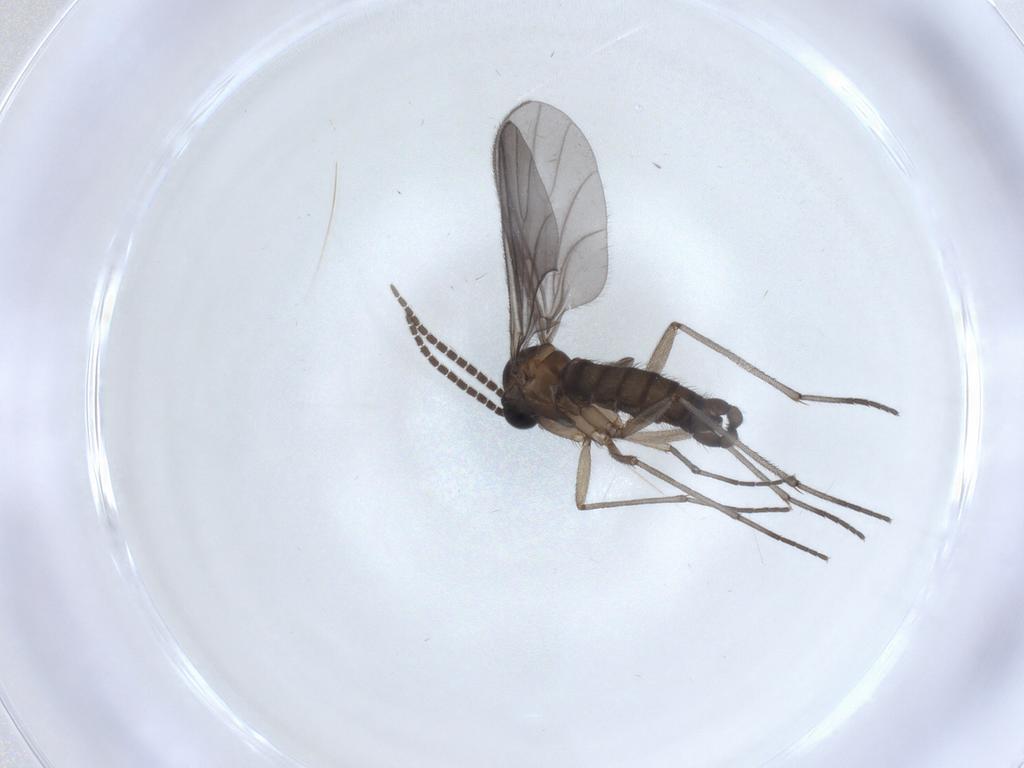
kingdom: Animalia
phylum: Arthropoda
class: Insecta
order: Diptera
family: Sciaridae
